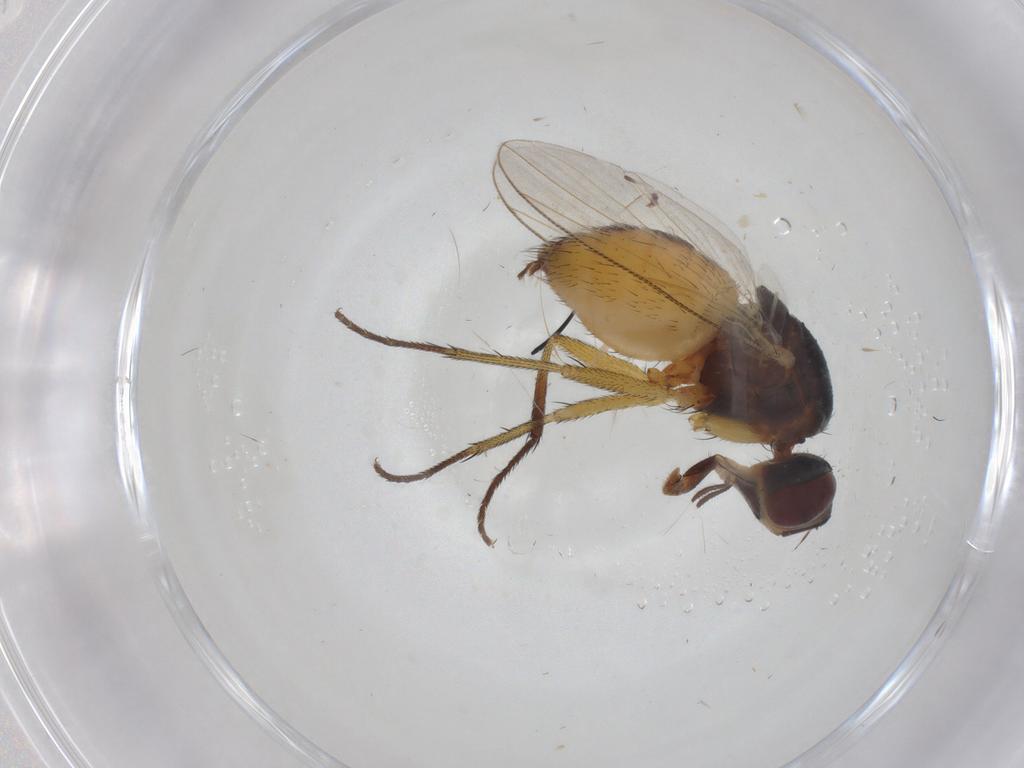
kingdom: Animalia
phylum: Arthropoda
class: Insecta
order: Diptera
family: Muscidae
